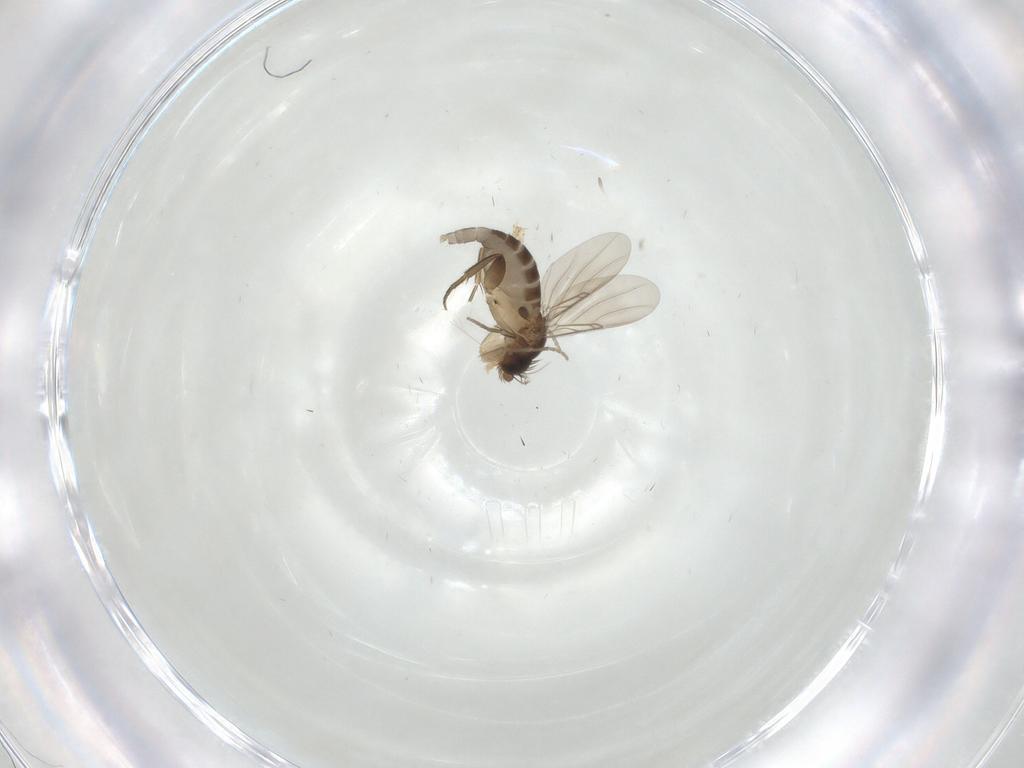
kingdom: Animalia
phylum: Arthropoda
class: Insecta
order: Diptera
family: Phoridae
